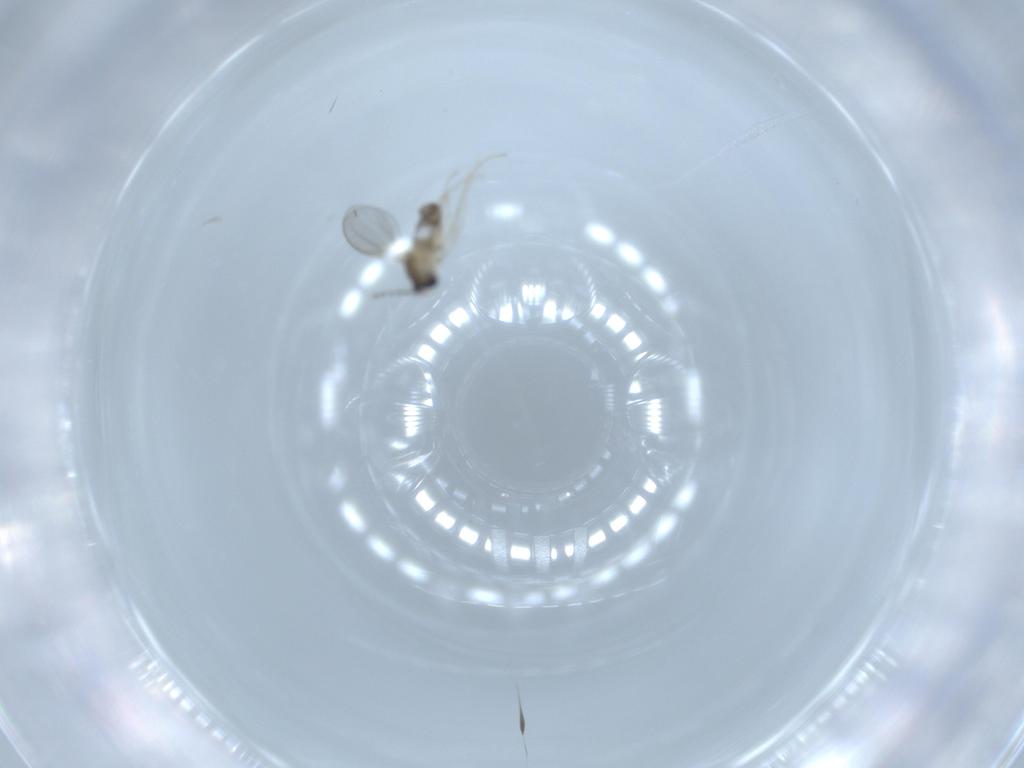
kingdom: Animalia
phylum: Arthropoda
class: Insecta
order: Diptera
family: Cecidomyiidae
